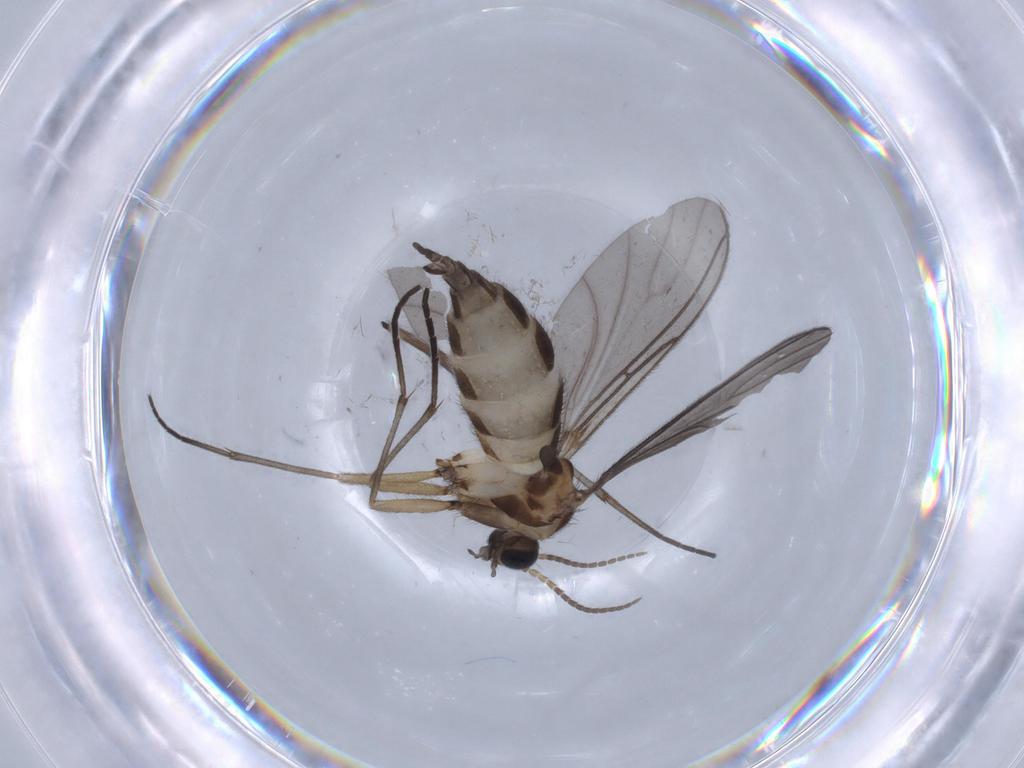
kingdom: Animalia
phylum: Arthropoda
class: Insecta
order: Diptera
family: Sciaridae
